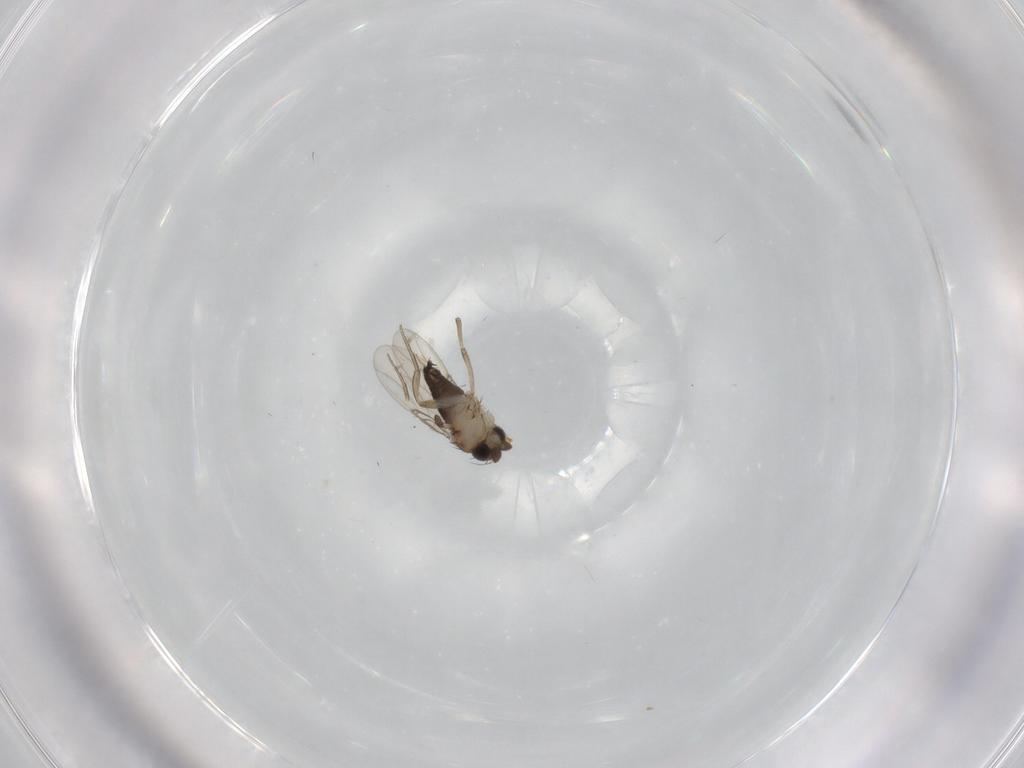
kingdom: Animalia
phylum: Arthropoda
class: Insecta
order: Diptera
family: Phoridae
